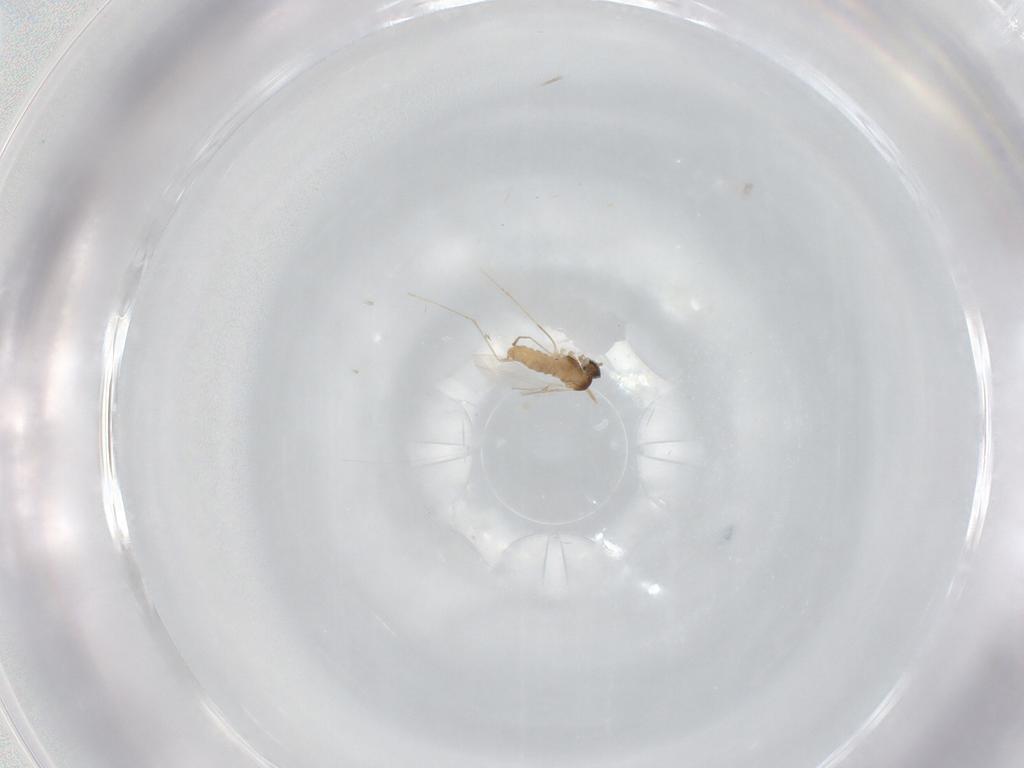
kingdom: Animalia
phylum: Arthropoda
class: Insecta
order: Diptera
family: Cecidomyiidae
